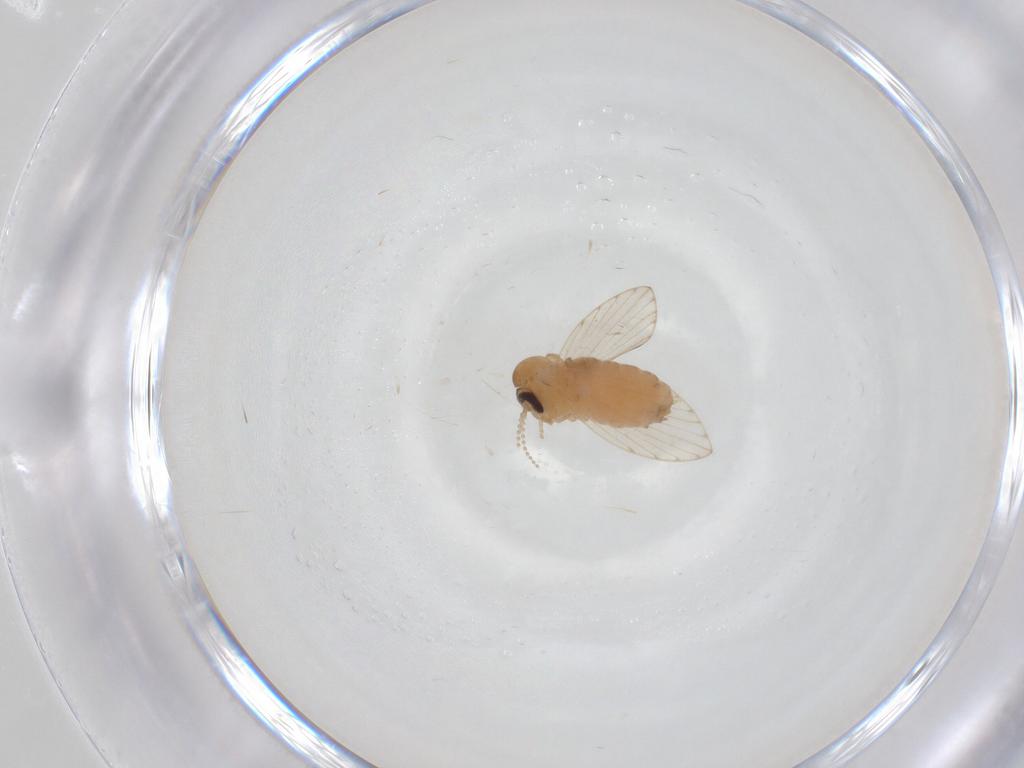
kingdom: Animalia
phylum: Arthropoda
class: Insecta
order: Diptera
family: Psychodidae
